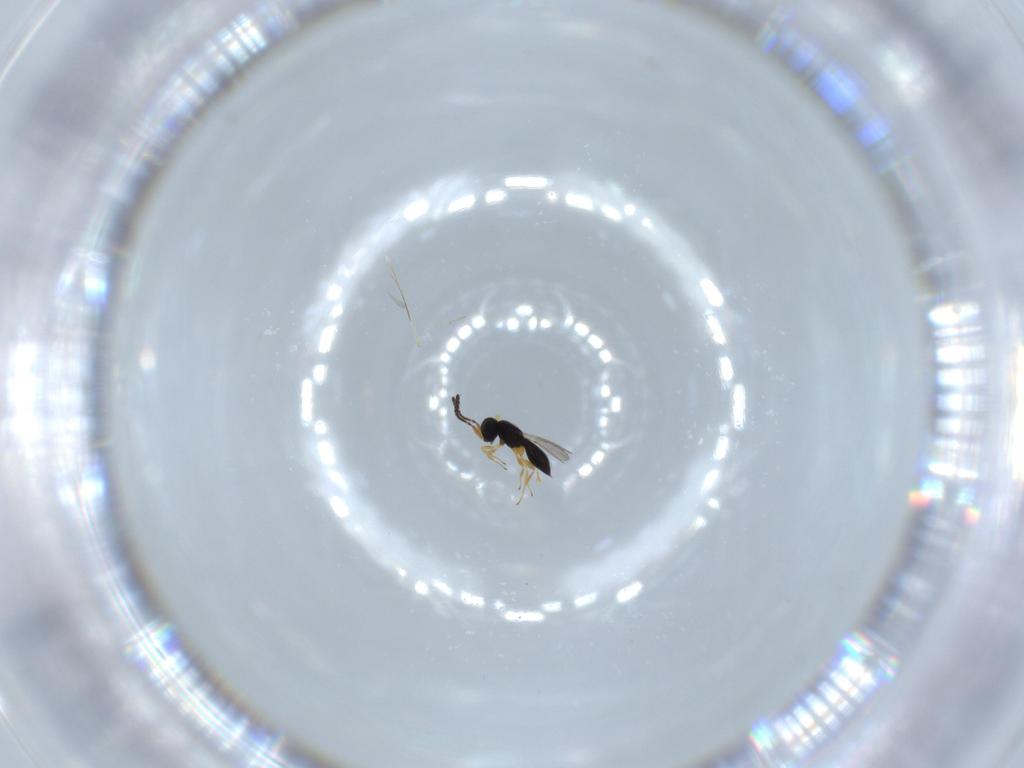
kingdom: Animalia
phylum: Arthropoda
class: Insecta
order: Hymenoptera
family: Scelionidae
